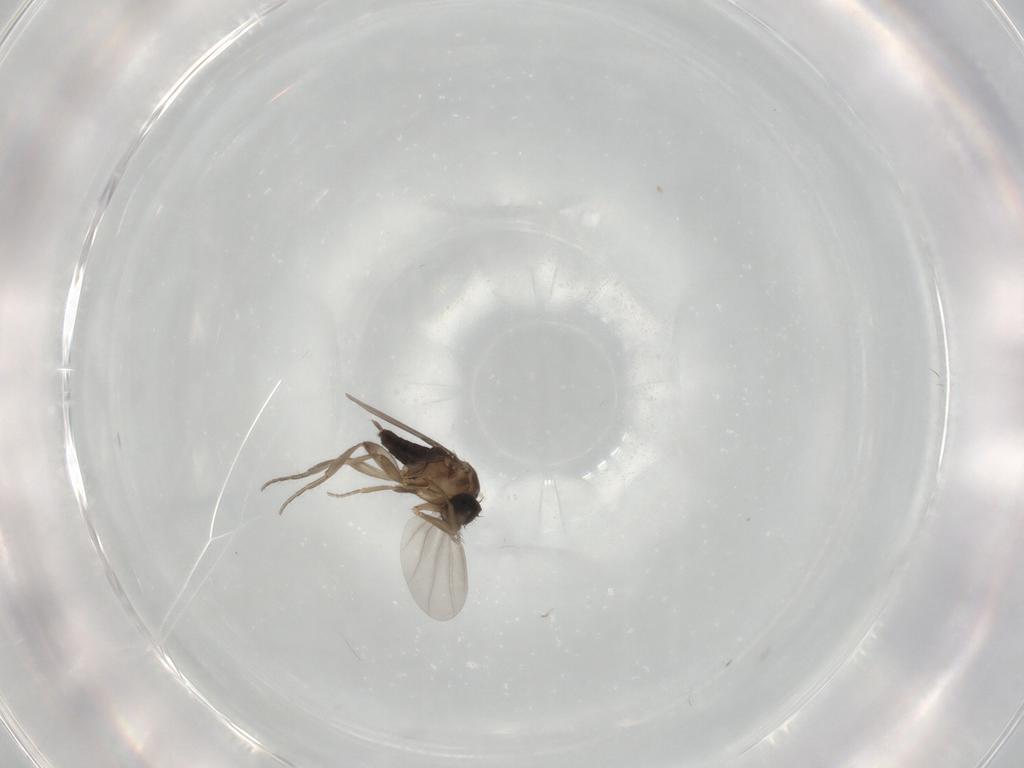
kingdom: Animalia
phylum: Arthropoda
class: Insecta
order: Diptera
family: Phoridae
